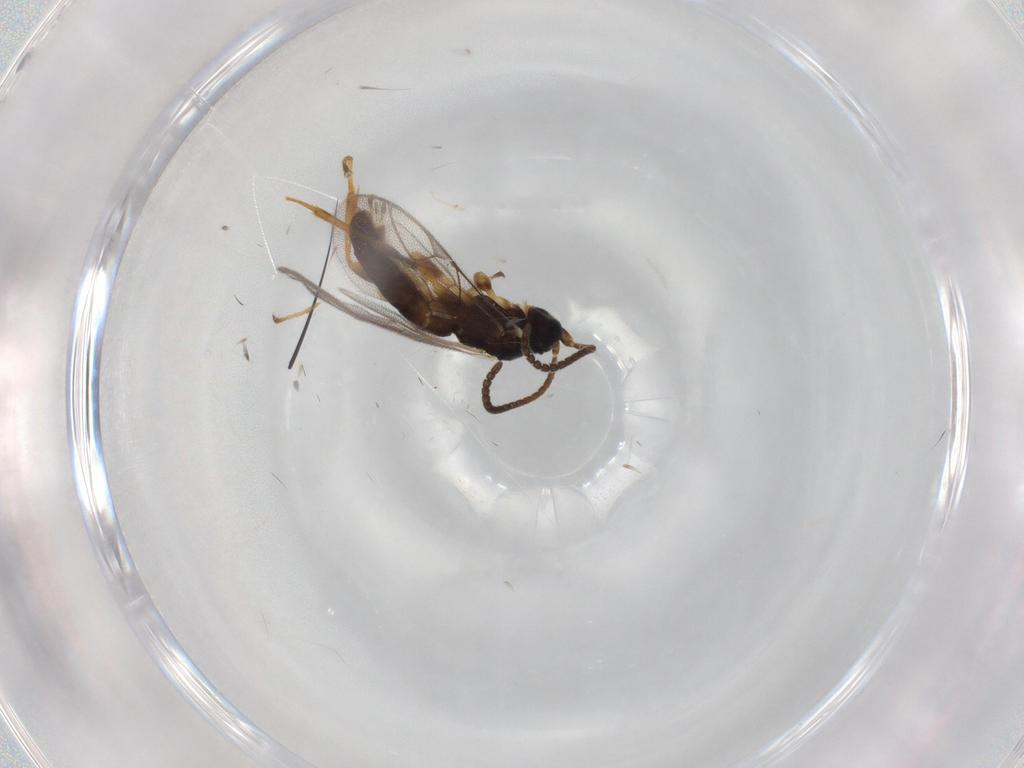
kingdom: Animalia
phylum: Arthropoda
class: Insecta
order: Hymenoptera
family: Ichneumonidae
